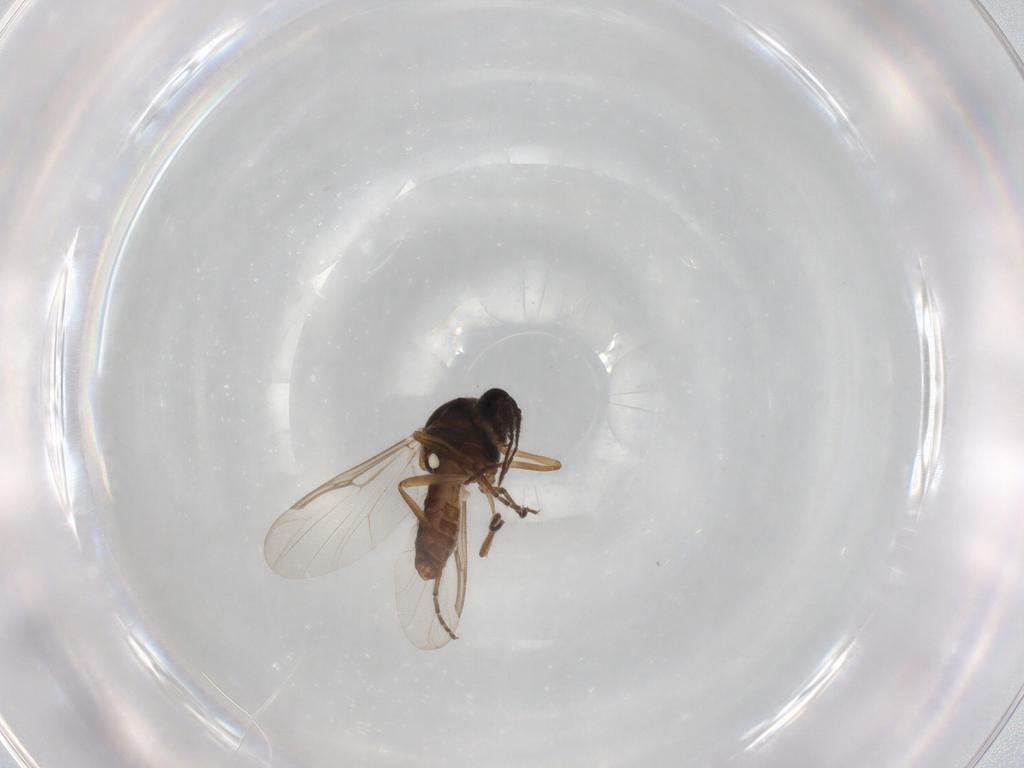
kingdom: Animalia
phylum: Arthropoda
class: Insecta
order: Diptera
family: Ceratopogonidae
